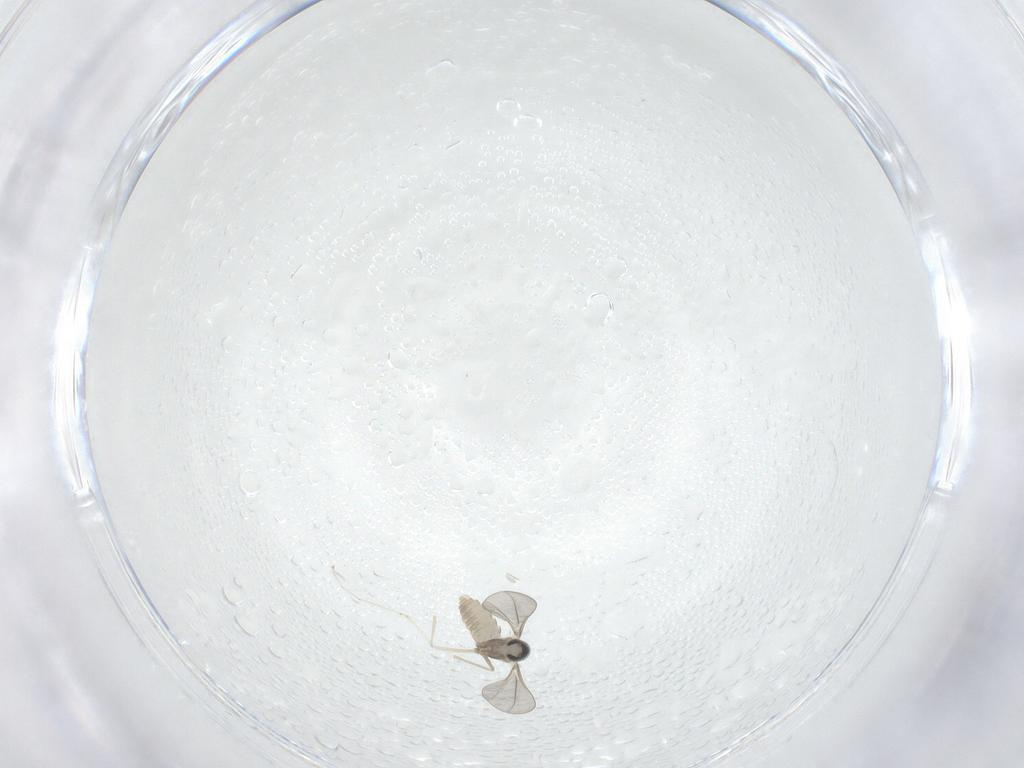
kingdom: Animalia
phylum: Arthropoda
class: Insecta
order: Diptera
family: Cecidomyiidae
